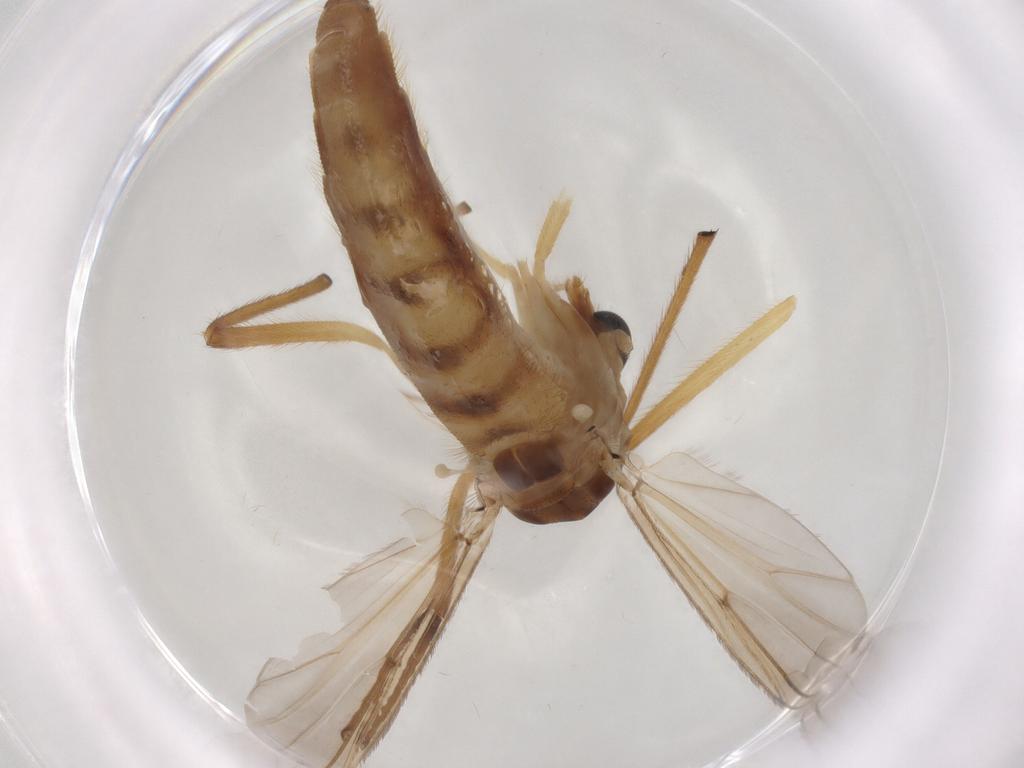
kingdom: Animalia
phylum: Arthropoda
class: Insecta
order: Diptera
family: Chironomidae
